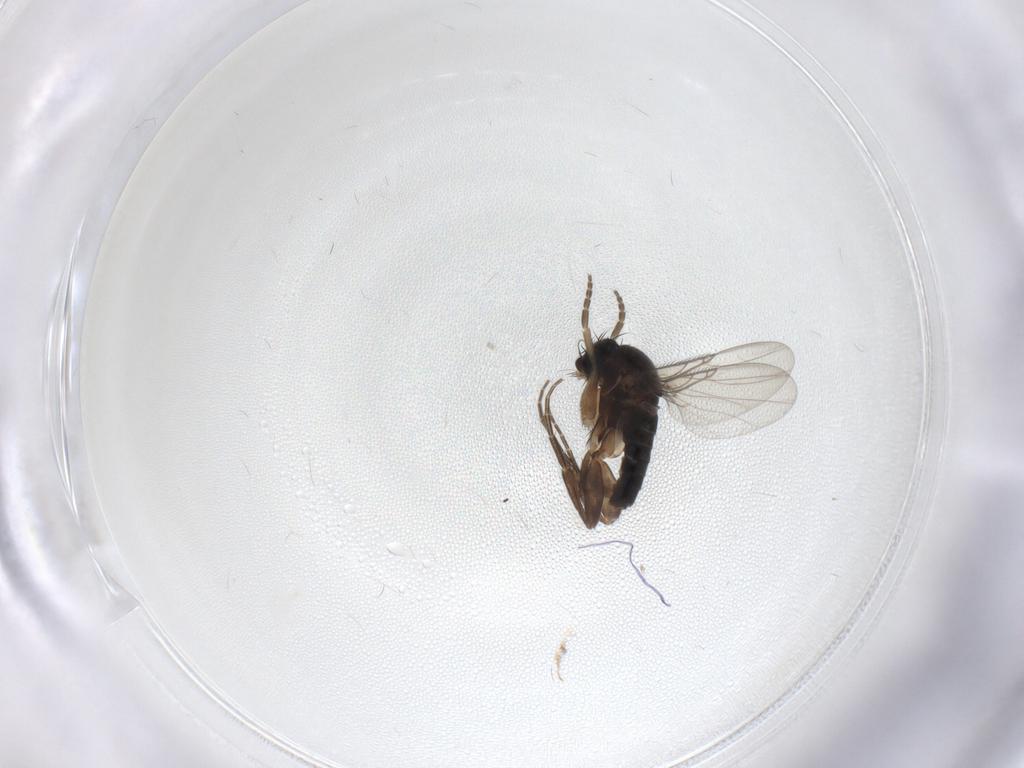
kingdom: Animalia
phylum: Arthropoda
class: Insecta
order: Diptera
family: Phoridae
